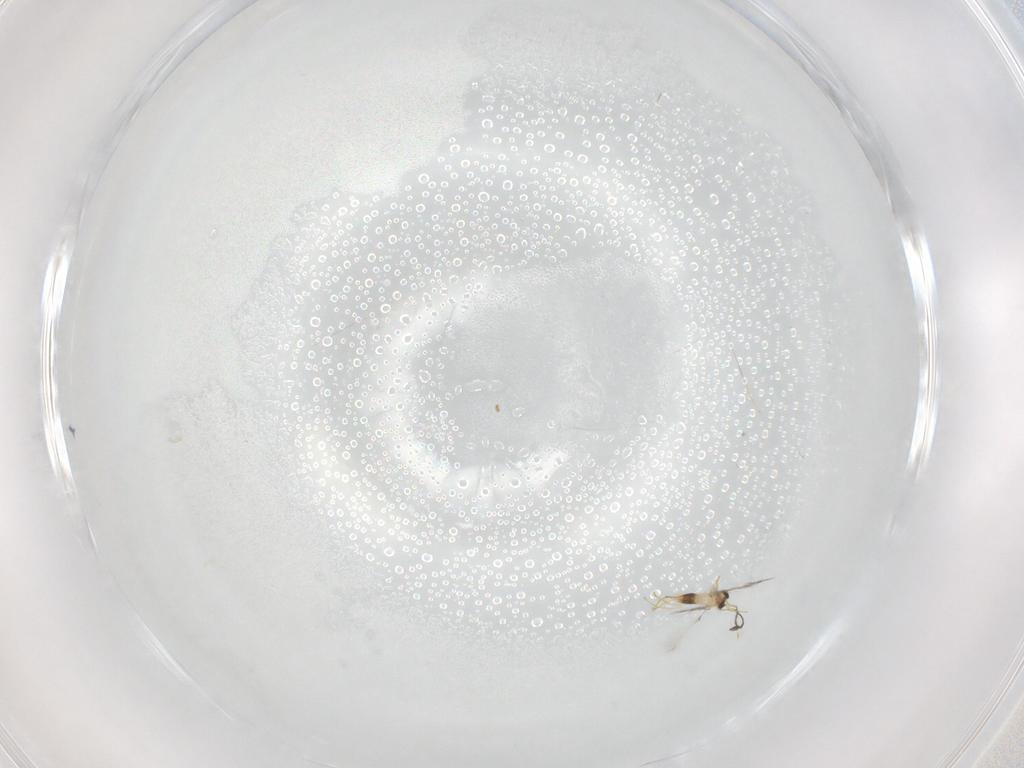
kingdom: Animalia
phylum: Arthropoda
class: Insecta
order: Hymenoptera
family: Mymaridae
